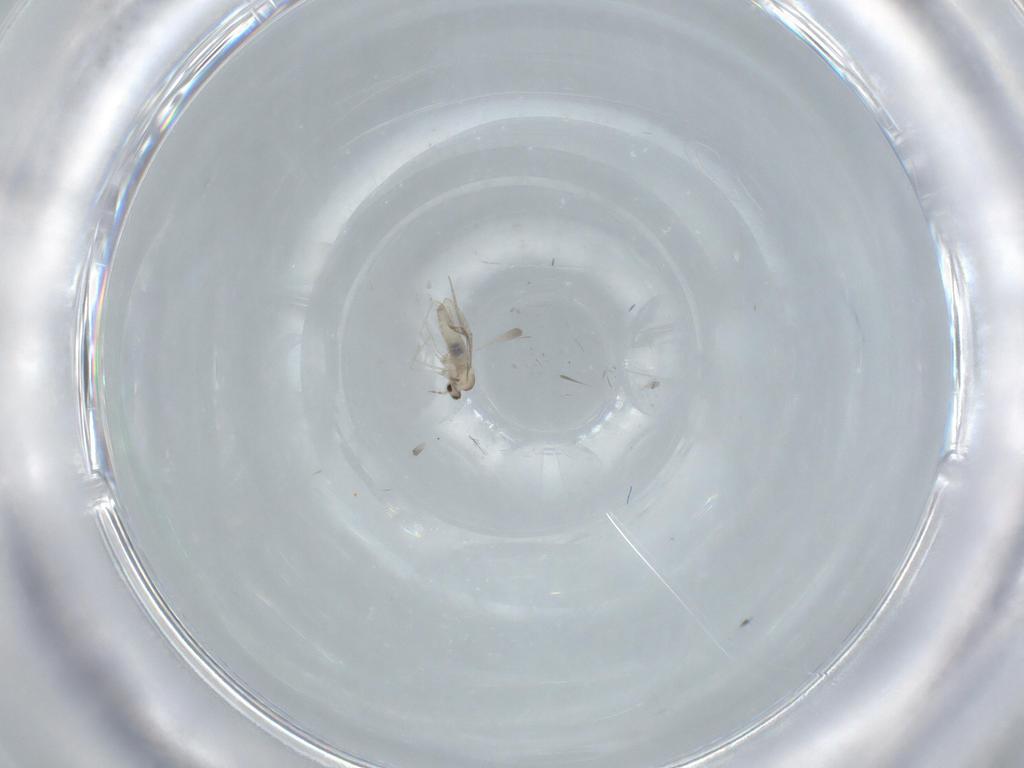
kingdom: Animalia
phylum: Arthropoda
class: Insecta
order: Diptera
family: Cecidomyiidae
